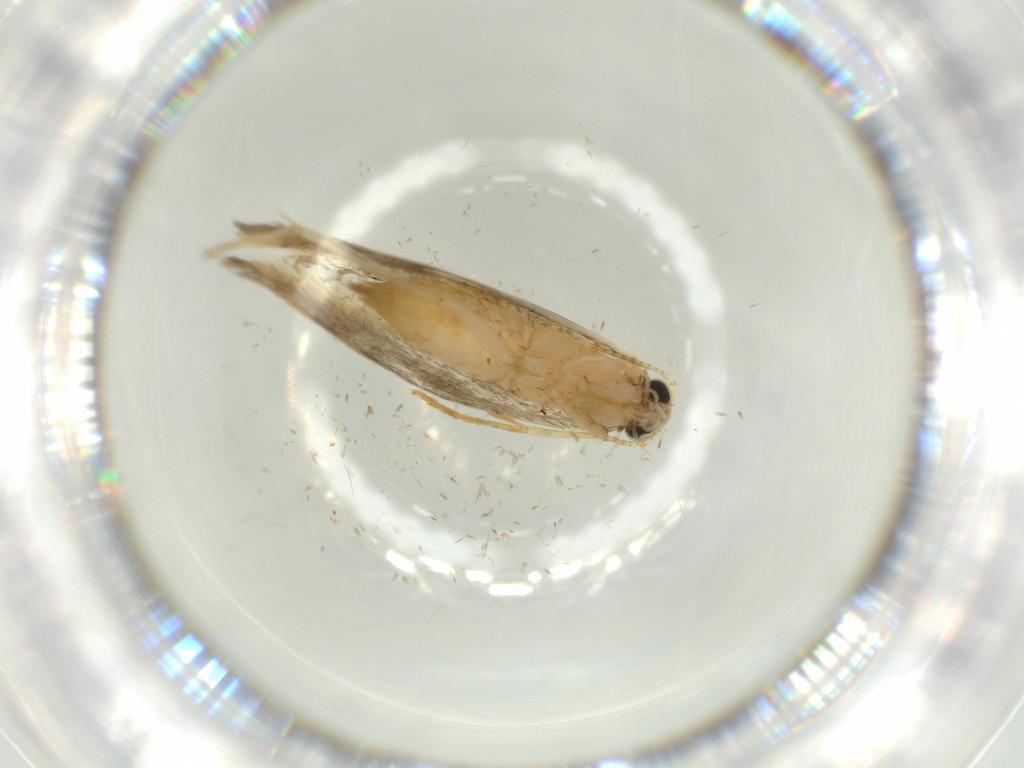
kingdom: Animalia
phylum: Arthropoda
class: Insecta
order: Lepidoptera
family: Tineidae
